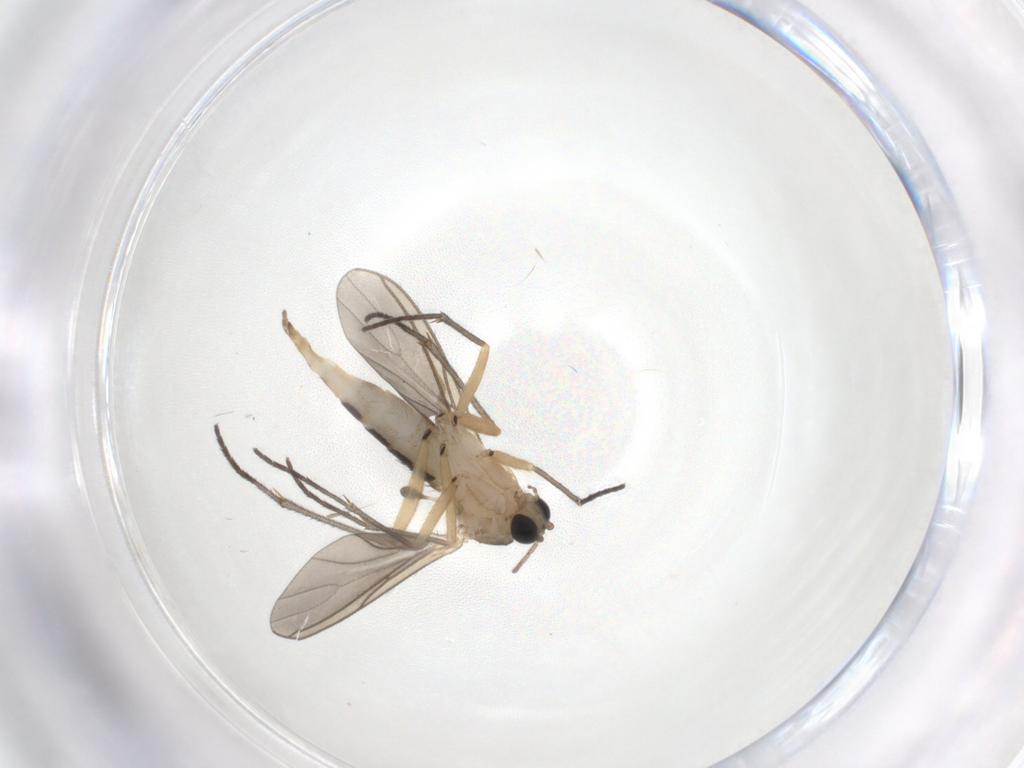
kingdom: Animalia
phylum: Arthropoda
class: Insecta
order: Diptera
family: Sciaridae
